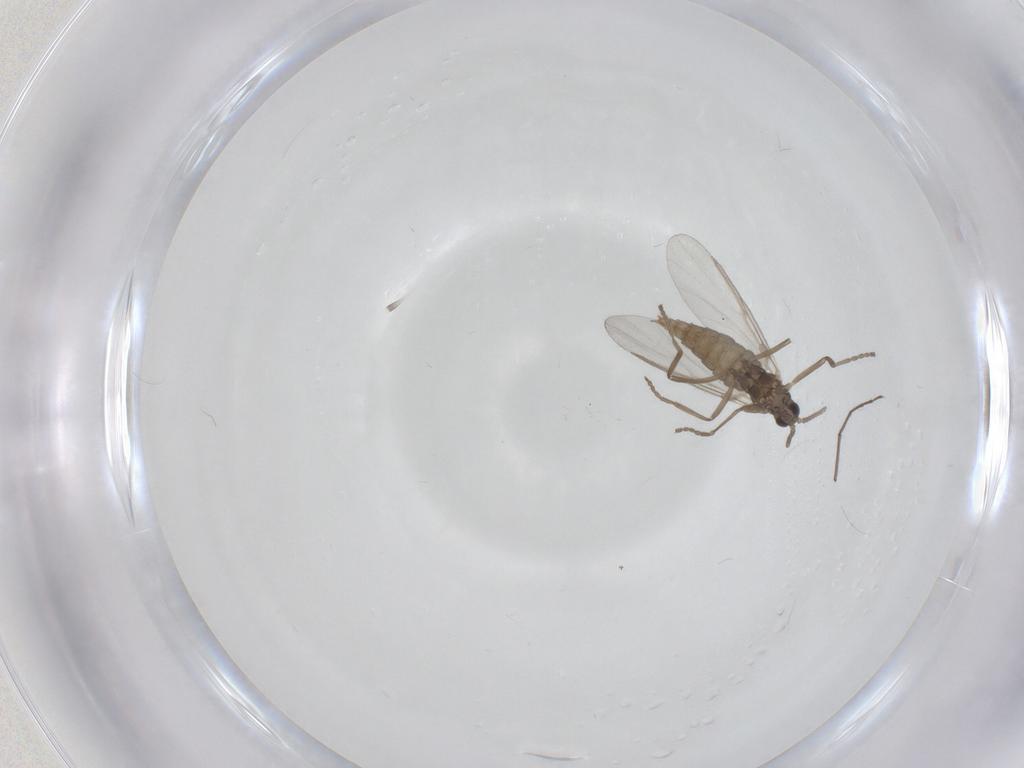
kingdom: Animalia
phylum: Arthropoda
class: Insecta
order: Diptera
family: Cecidomyiidae
